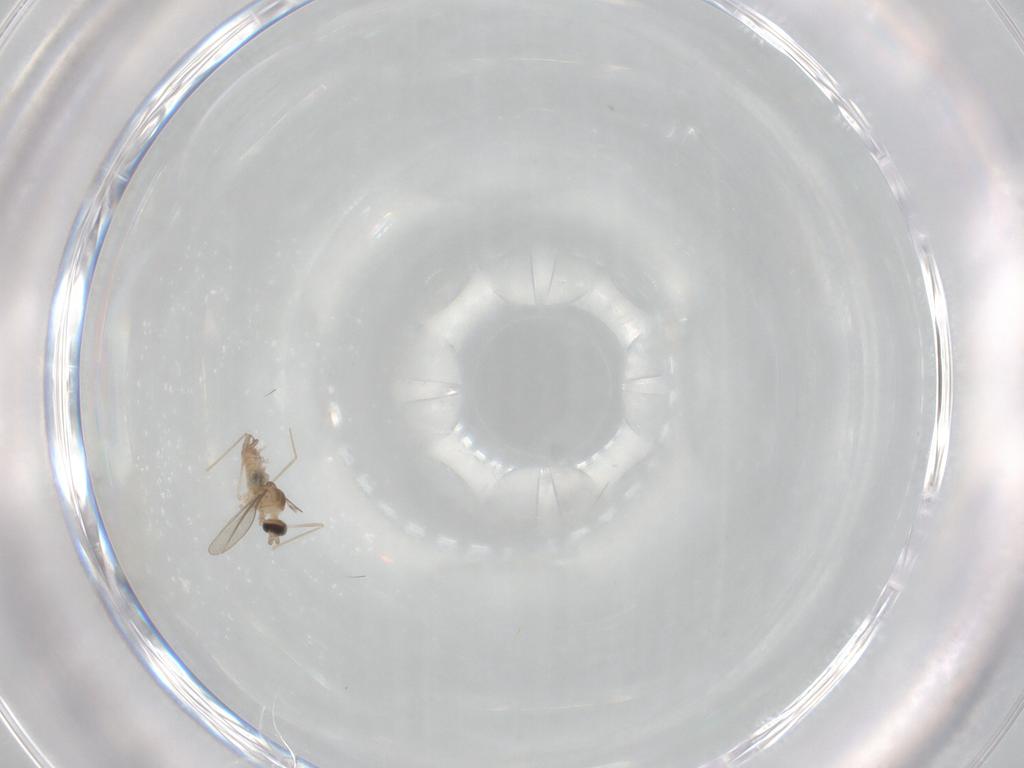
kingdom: Animalia
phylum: Arthropoda
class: Insecta
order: Diptera
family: Cecidomyiidae
